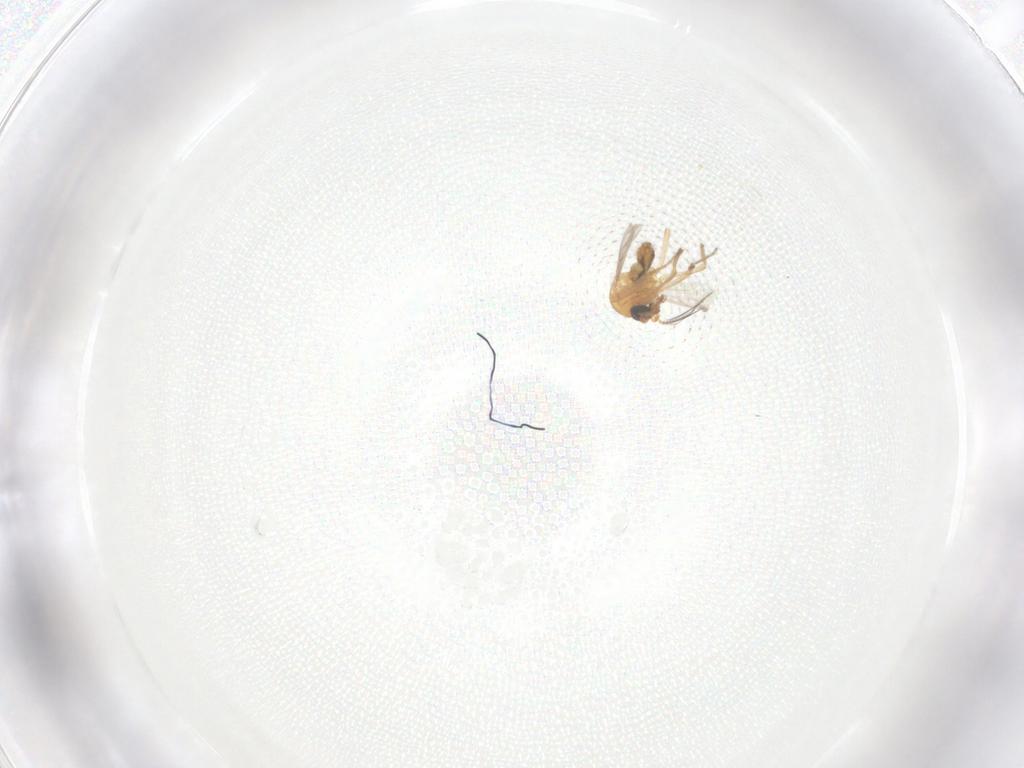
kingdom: Animalia
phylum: Arthropoda
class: Insecta
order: Diptera
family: Ceratopogonidae
